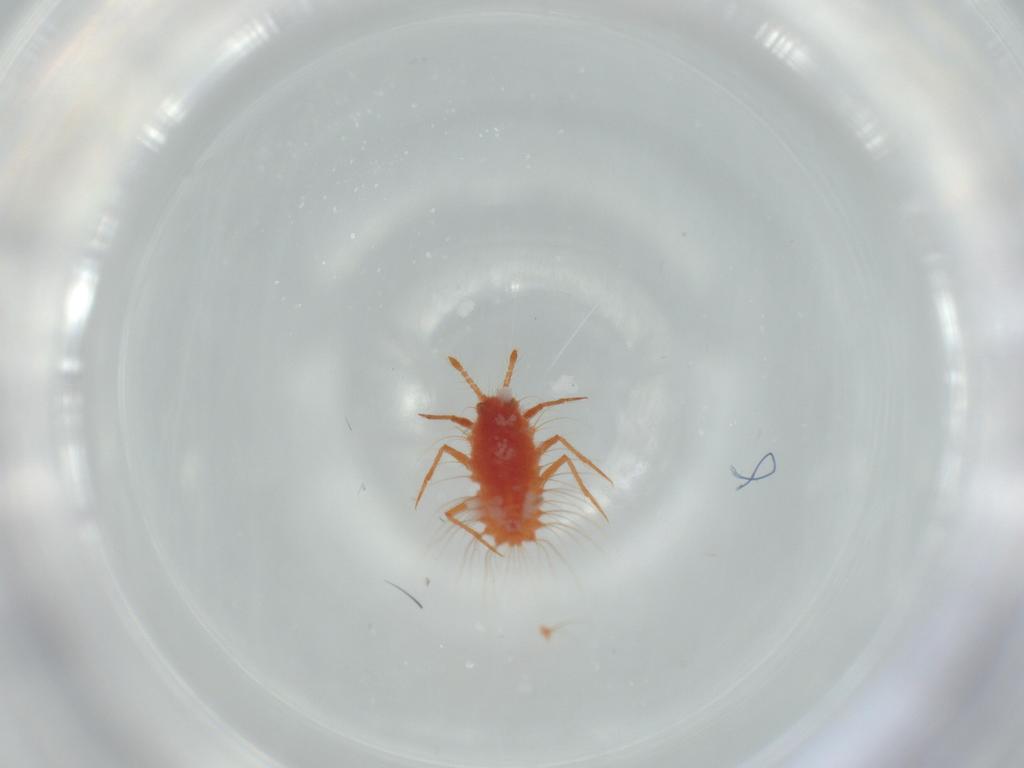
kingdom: Animalia
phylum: Arthropoda
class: Insecta
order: Hemiptera
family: Monophlebidae
